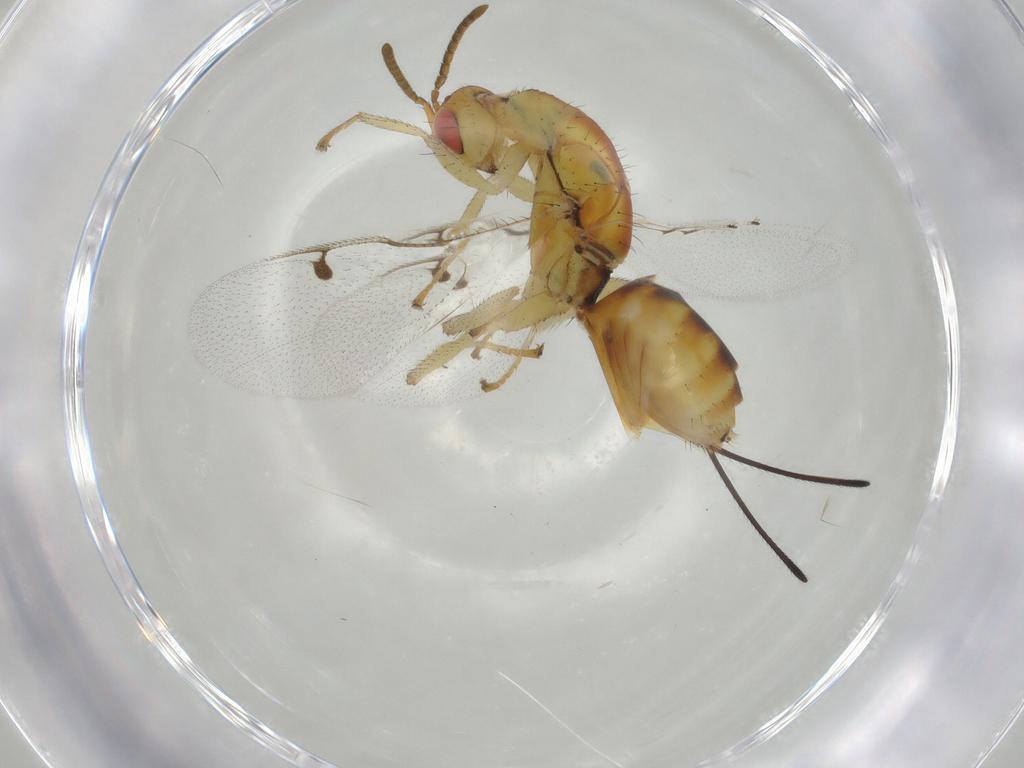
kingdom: Animalia
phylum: Arthropoda
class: Insecta
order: Hymenoptera
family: Megastigmidae
